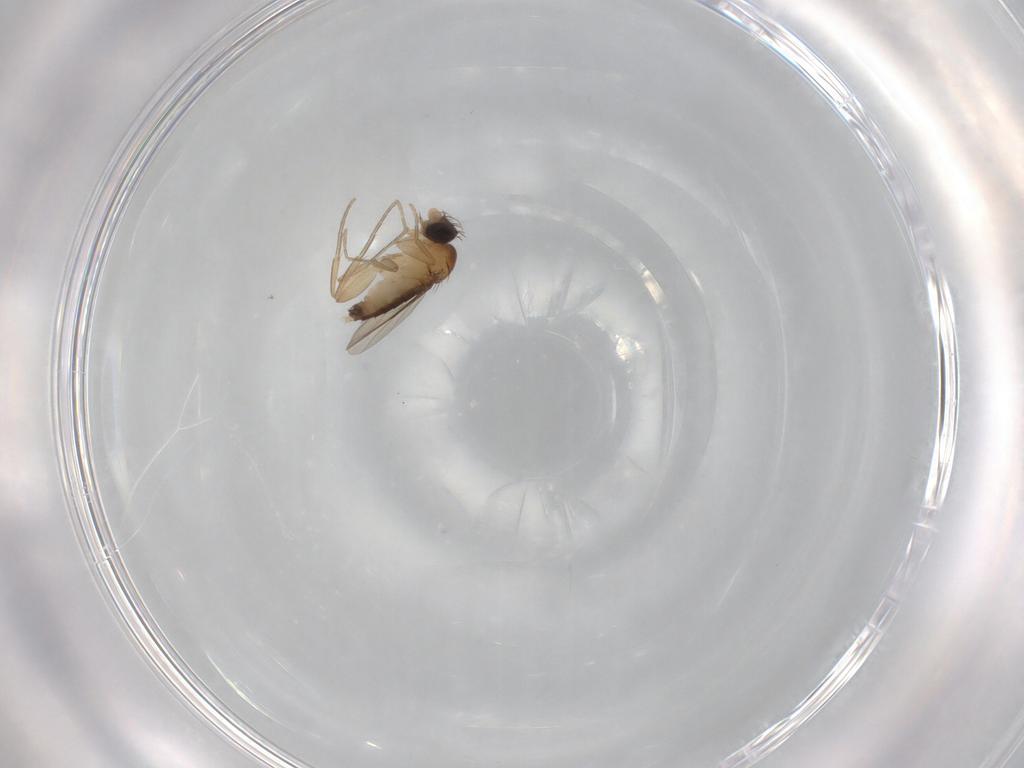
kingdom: Animalia
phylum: Arthropoda
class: Insecta
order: Diptera
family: Phoridae
